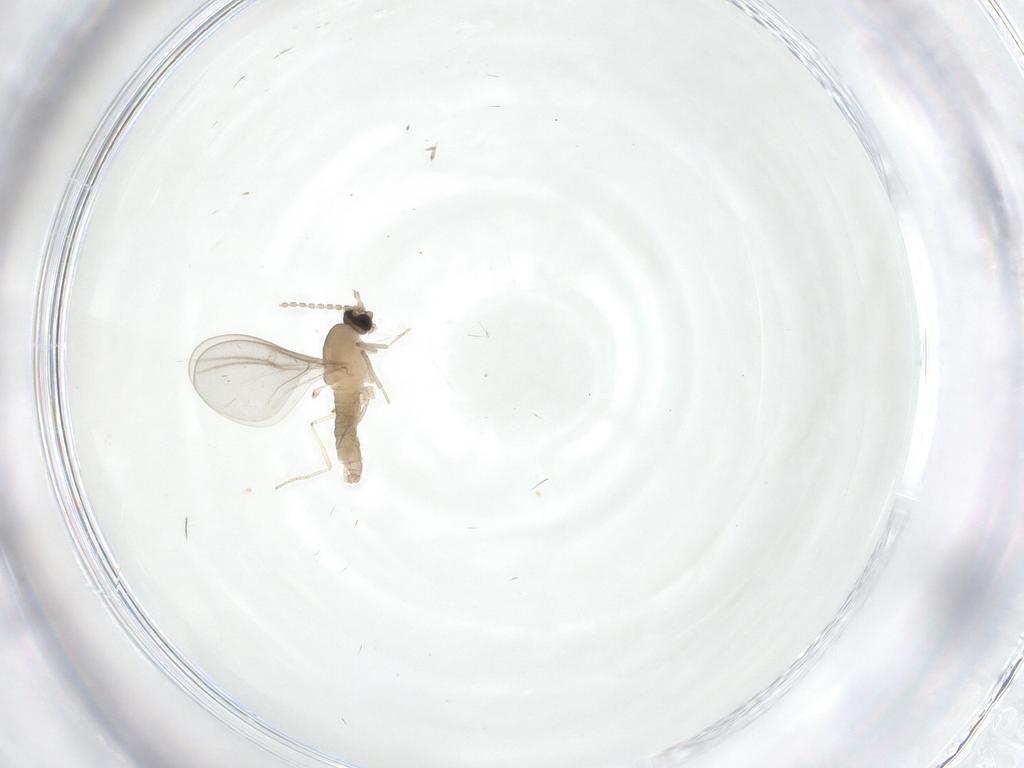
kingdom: Animalia
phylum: Arthropoda
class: Insecta
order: Diptera
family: Cecidomyiidae
